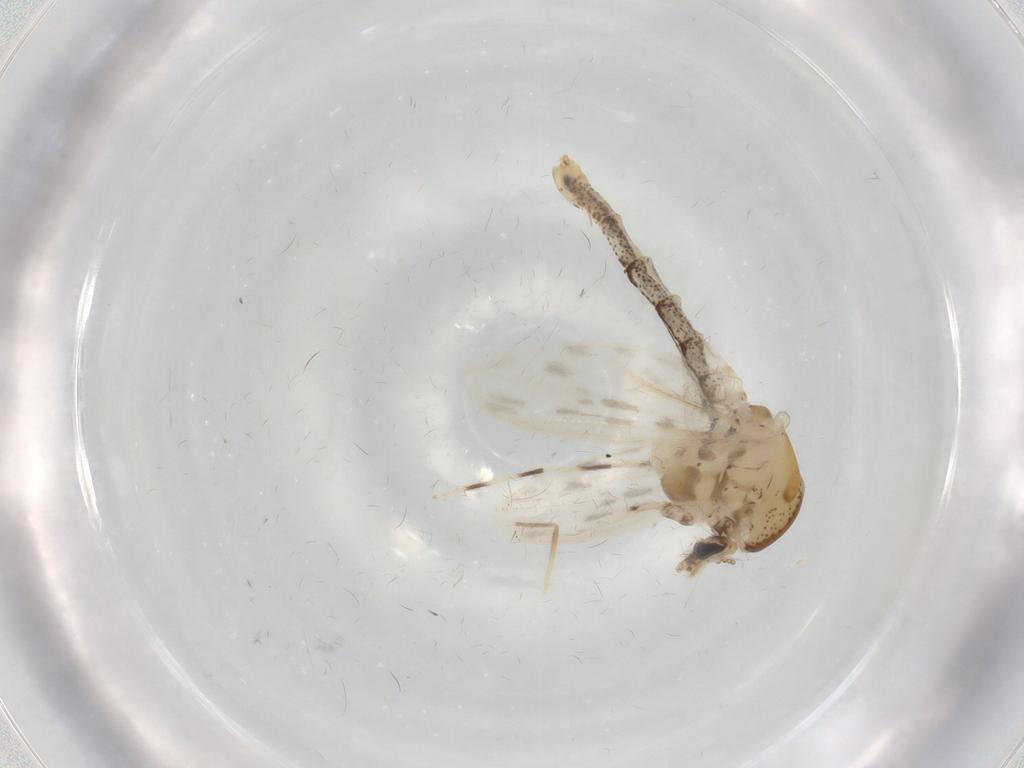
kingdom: Animalia
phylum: Arthropoda
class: Insecta
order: Diptera
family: Chaoboridae
